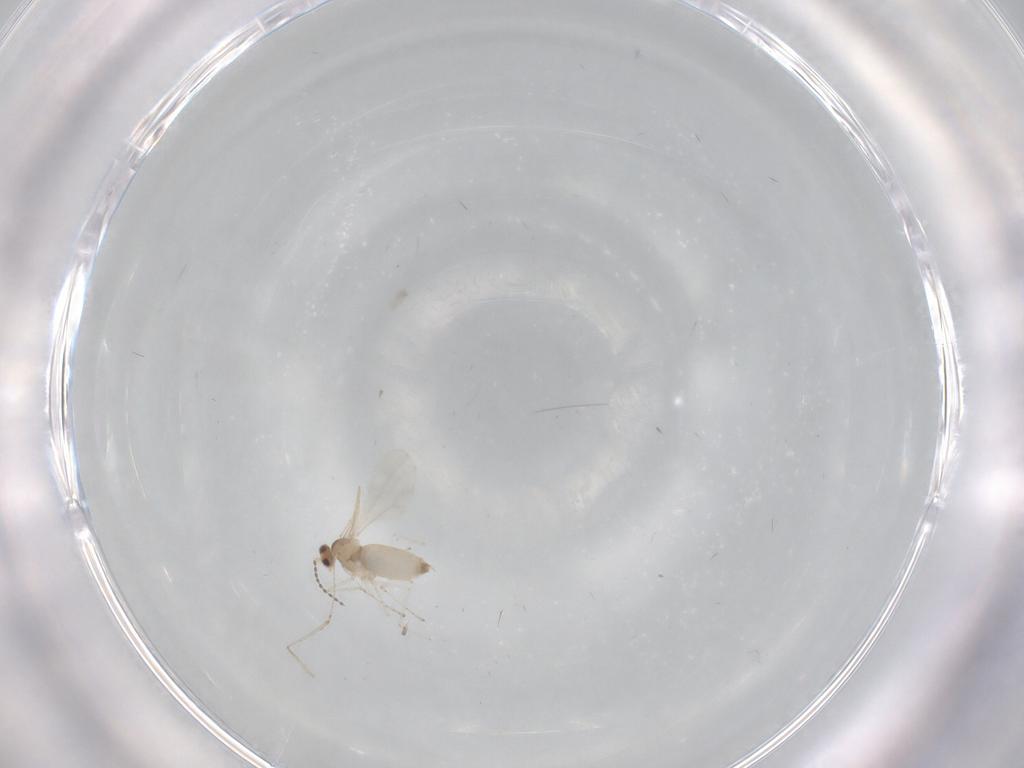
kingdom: Animalia
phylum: Arthropoda
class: Insecta
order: Diptera
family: Cecidomyiidae
